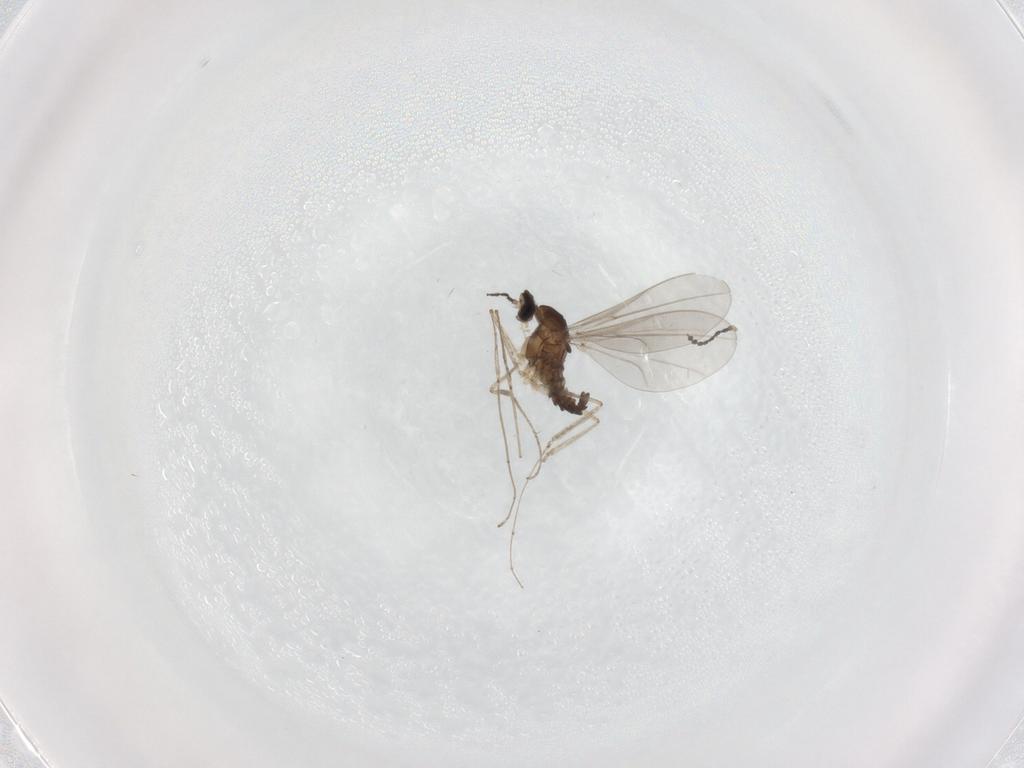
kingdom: Animalia
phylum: Arthropoda
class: Insecta
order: Diptera
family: Cecidomyiidae
